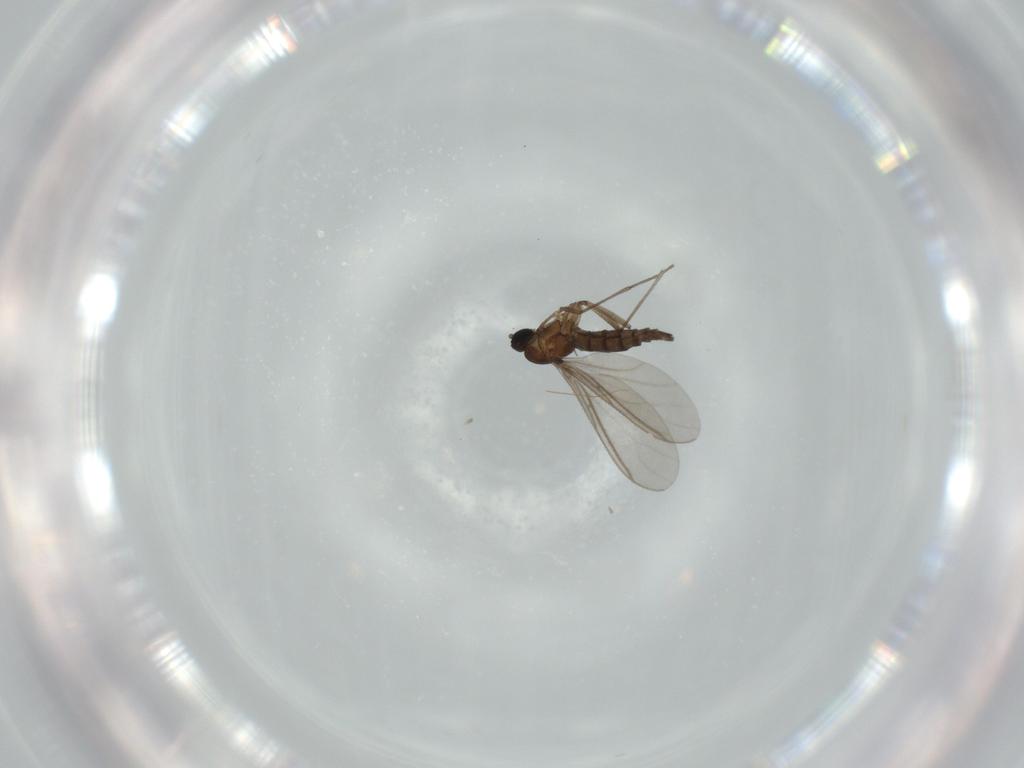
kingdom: Animalia
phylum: Arthropoda
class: Insecta
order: Diptera
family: Sciaridae
